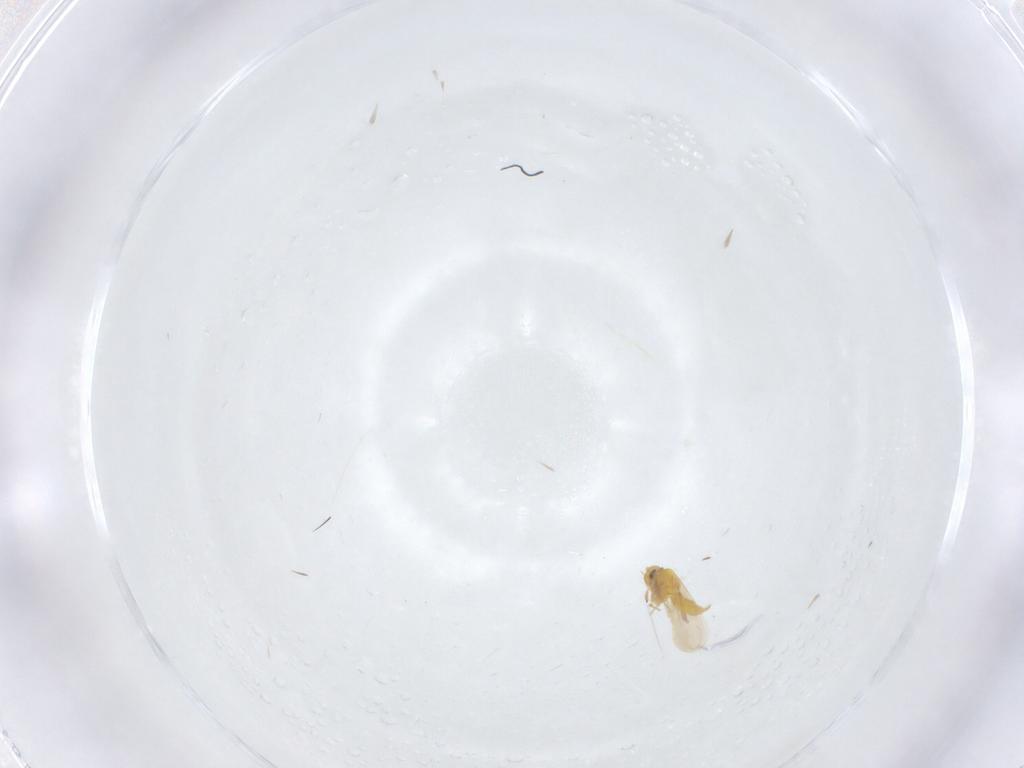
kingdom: Animalia
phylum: Arthropoda
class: Insecta
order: Hemiptera
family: Aleyrodidae
